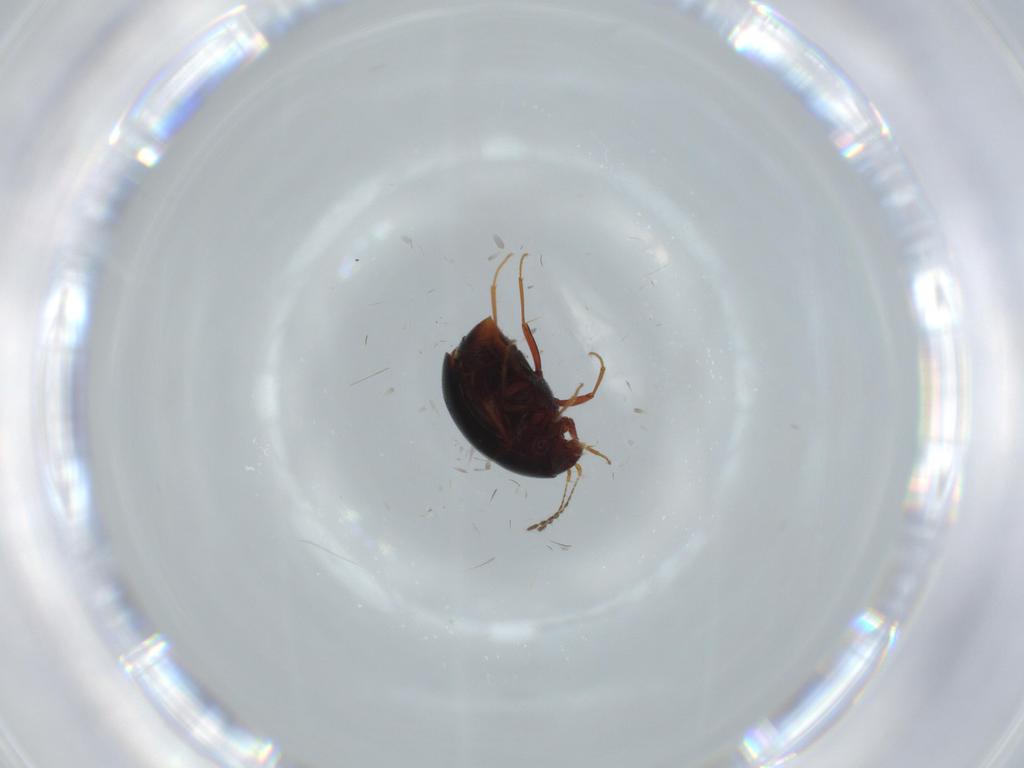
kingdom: Animalia
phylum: Arthropoda
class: Insecta
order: Coleoptera
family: Staphylinidae
